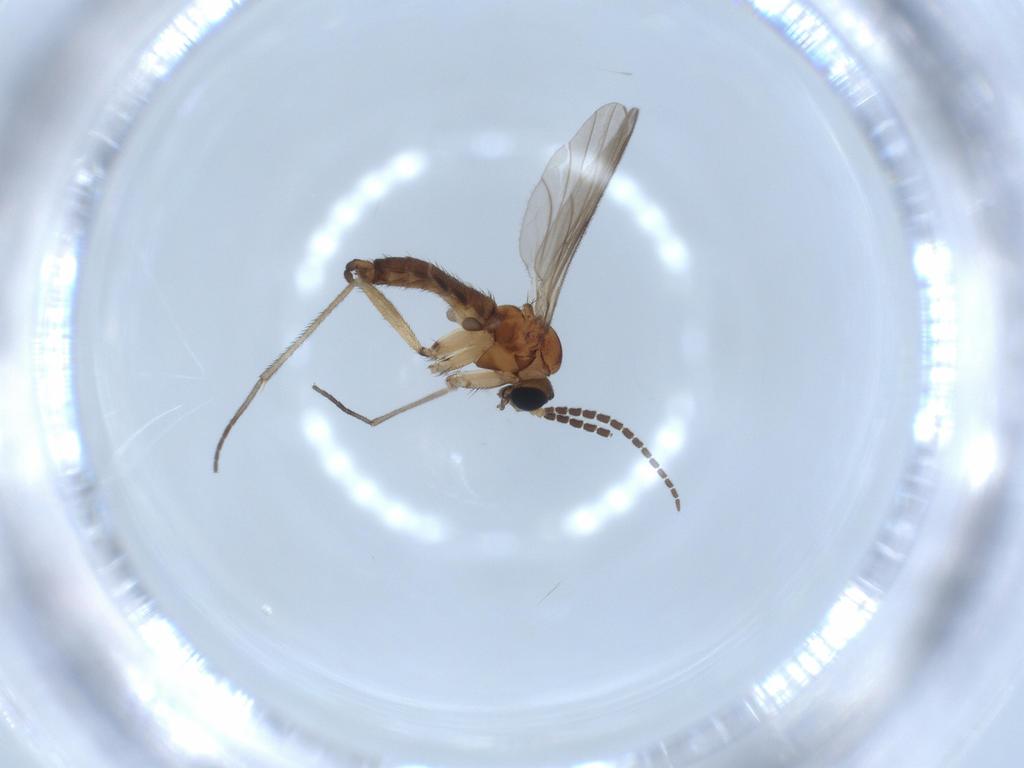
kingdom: Animalia
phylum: Arthropoda
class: Insecta
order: Diptera
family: Sciaridae
